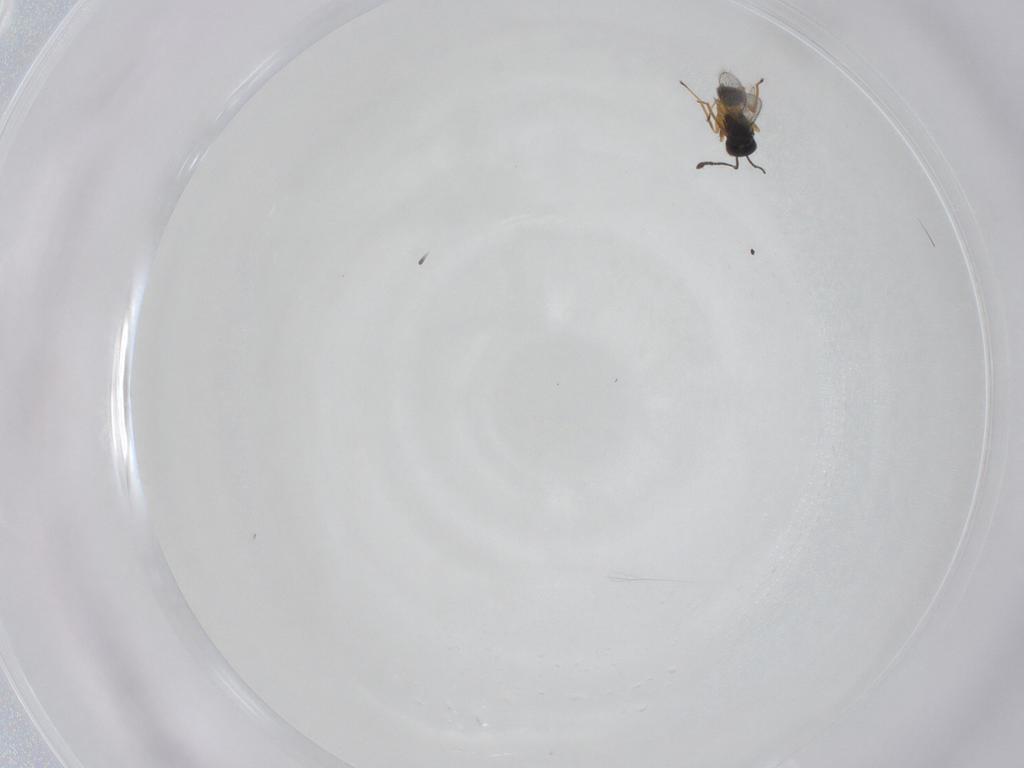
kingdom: Animalia
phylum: Arthropoda
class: Insecta
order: Hymenoptera
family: Mymaridae
